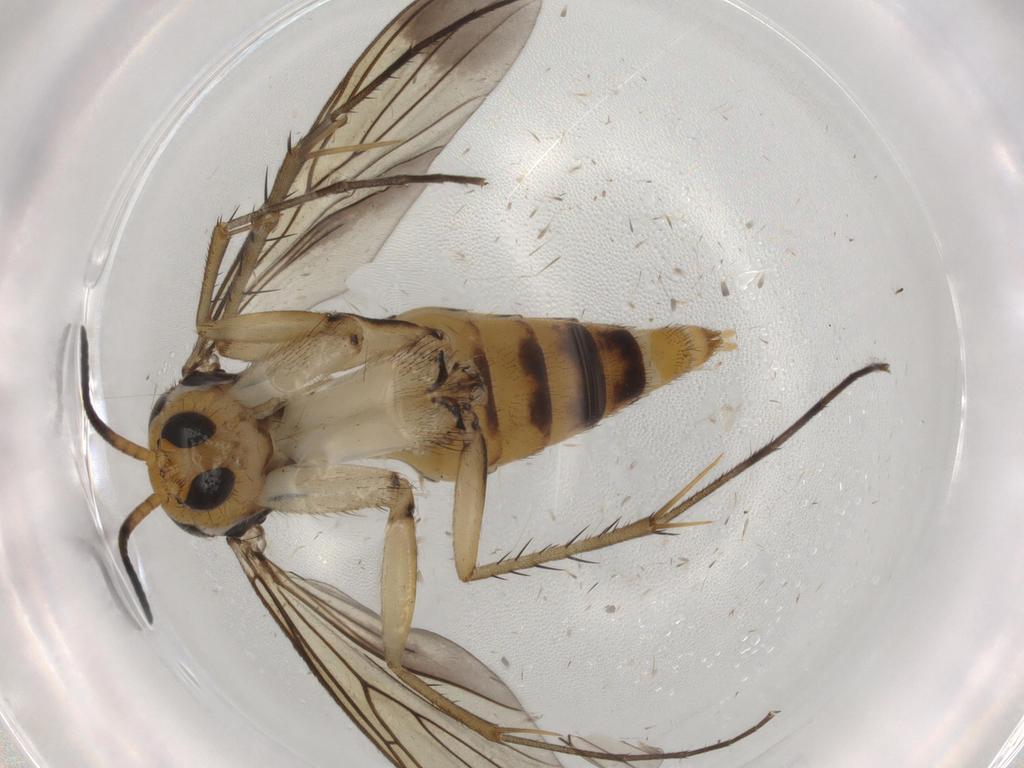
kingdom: Animalia
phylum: Arthropoda
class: Insecta
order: Diptera
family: Mycetophilidae
